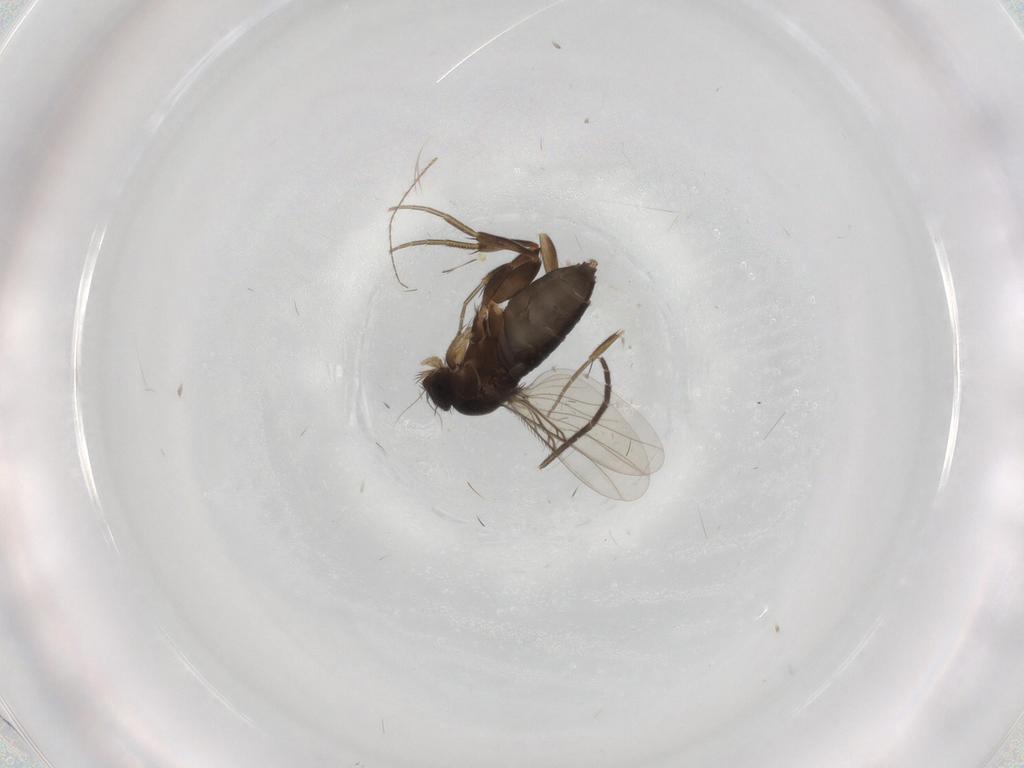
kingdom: Animalia
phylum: Arthropoda
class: Insecta
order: Diptera
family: Phoridae
